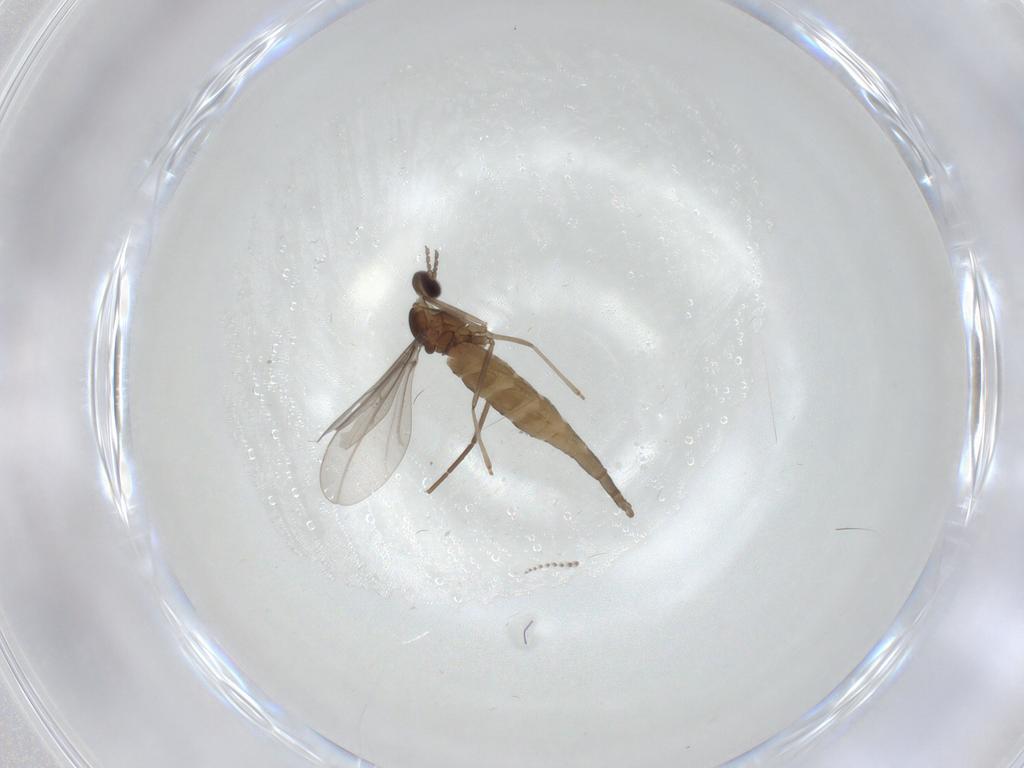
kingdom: Animalia
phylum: Arthropoda
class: Insecta
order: Diptera
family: Cecidomyiidae
